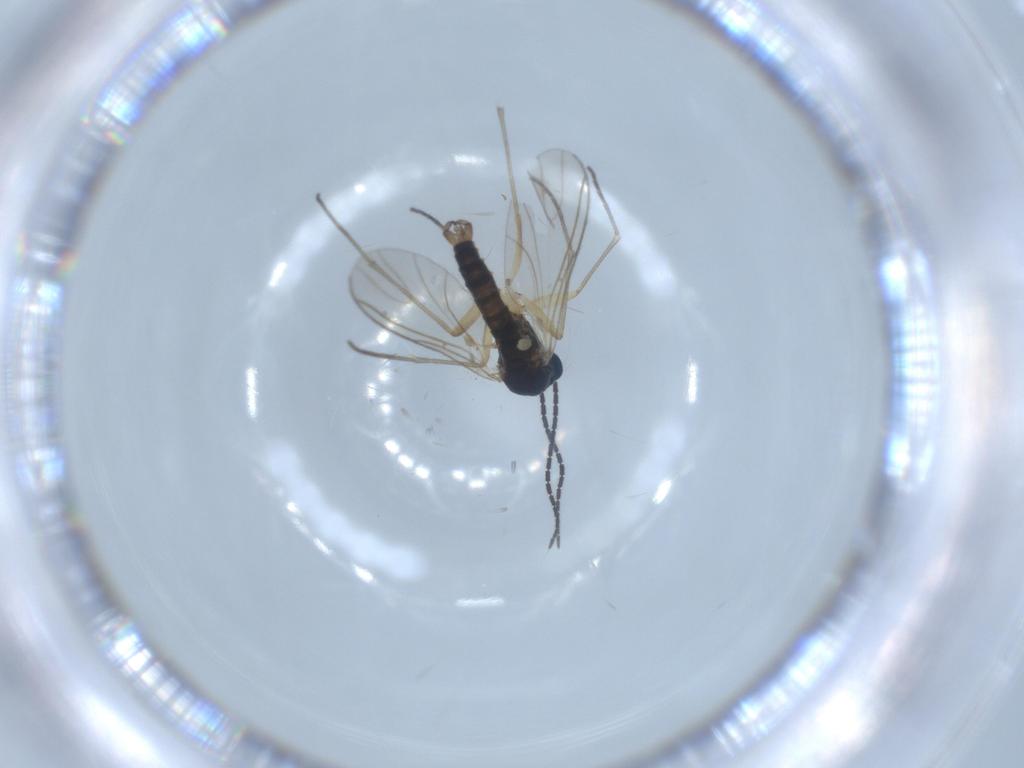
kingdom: Animalia
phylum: Arthropoda
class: Insecta
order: Diptera
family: Sciaridae
